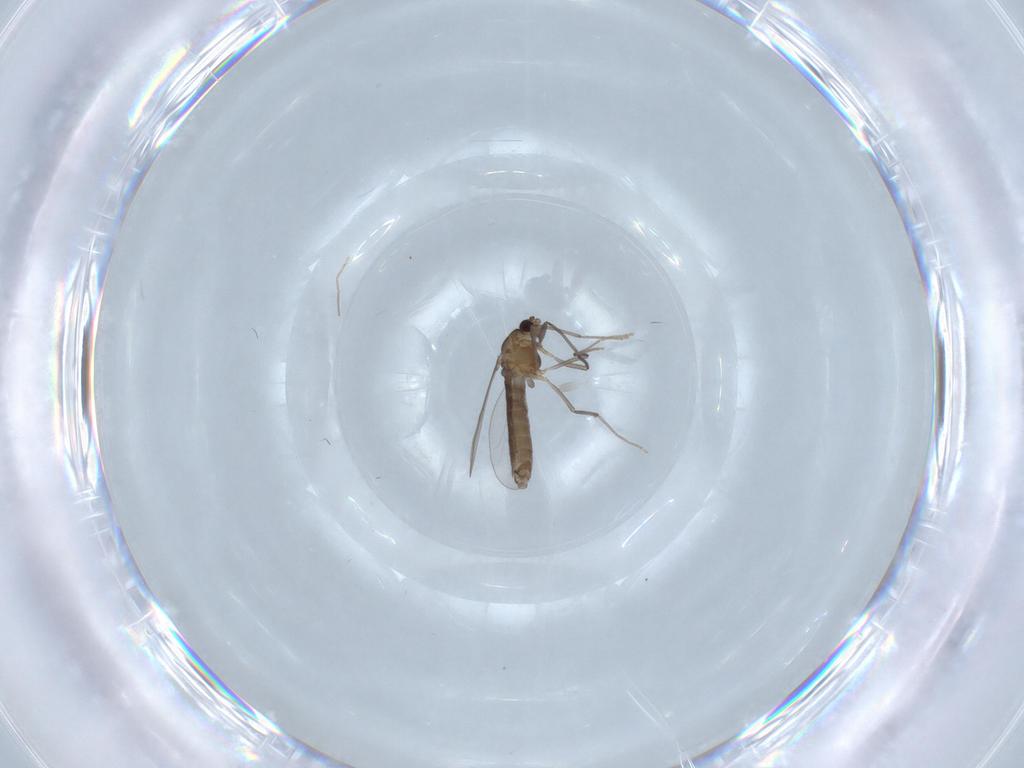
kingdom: Animalia
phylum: Arthropoda
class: Insecta
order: Diptera
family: Chironomidae
